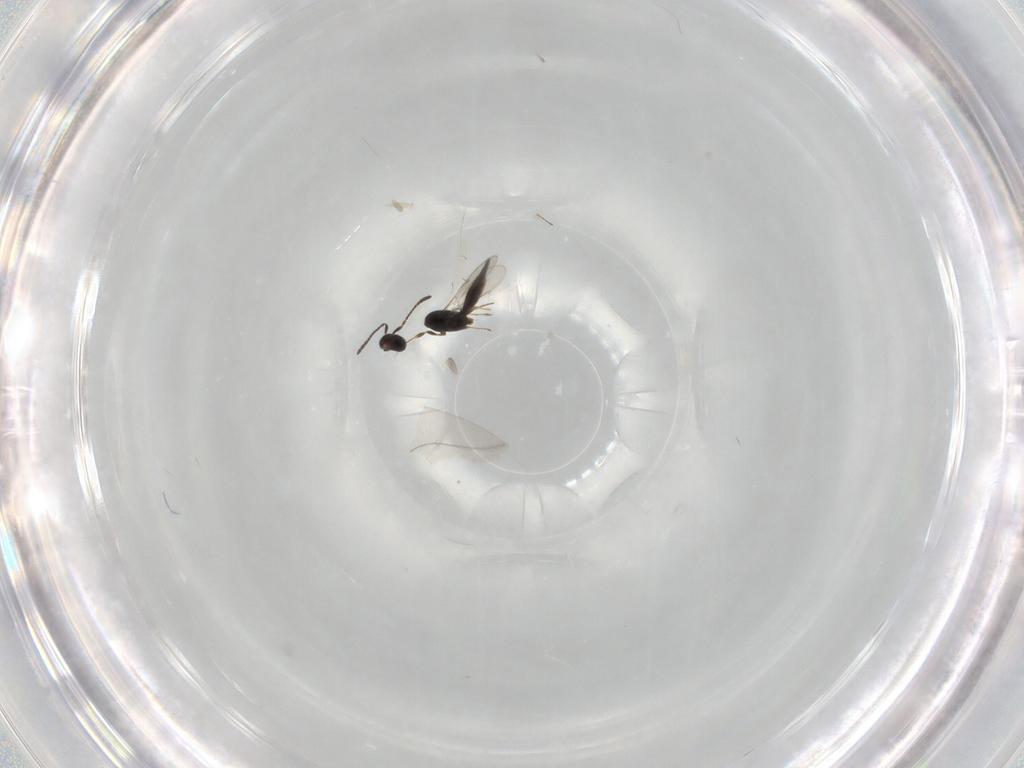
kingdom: Animalia
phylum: Arthropoda
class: Insecta
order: Hymenoptera
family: Scelionidae
